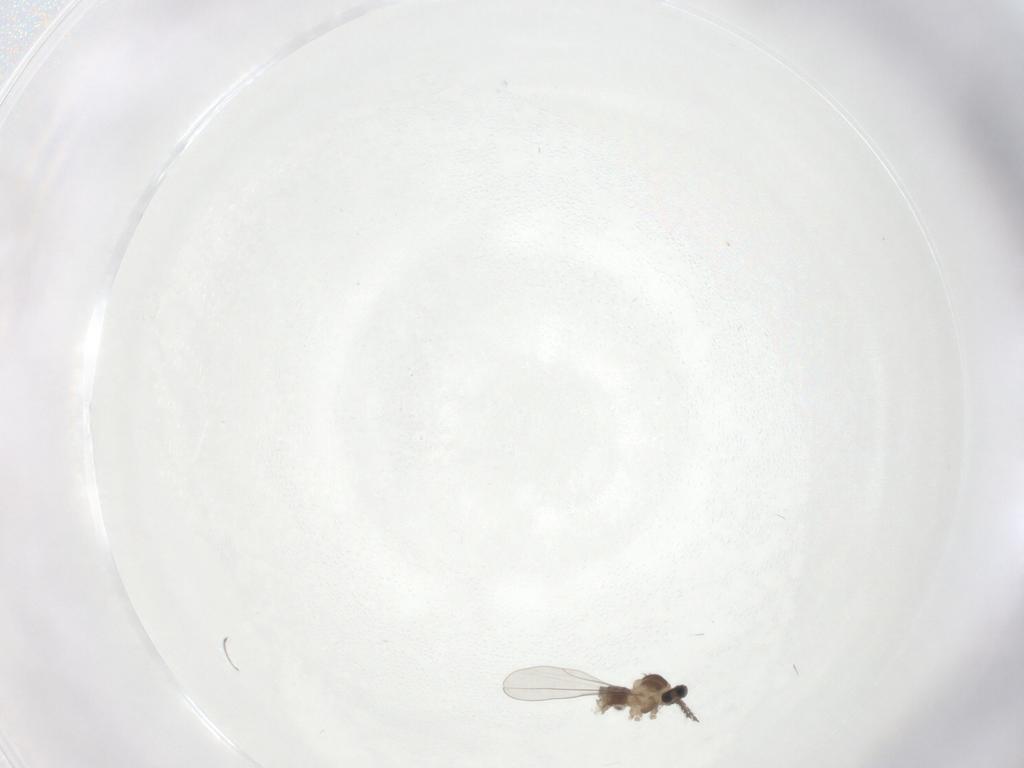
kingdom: Animalia
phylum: Arthropoda
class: Insecta
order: Diptera
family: Cecidomyiidae
